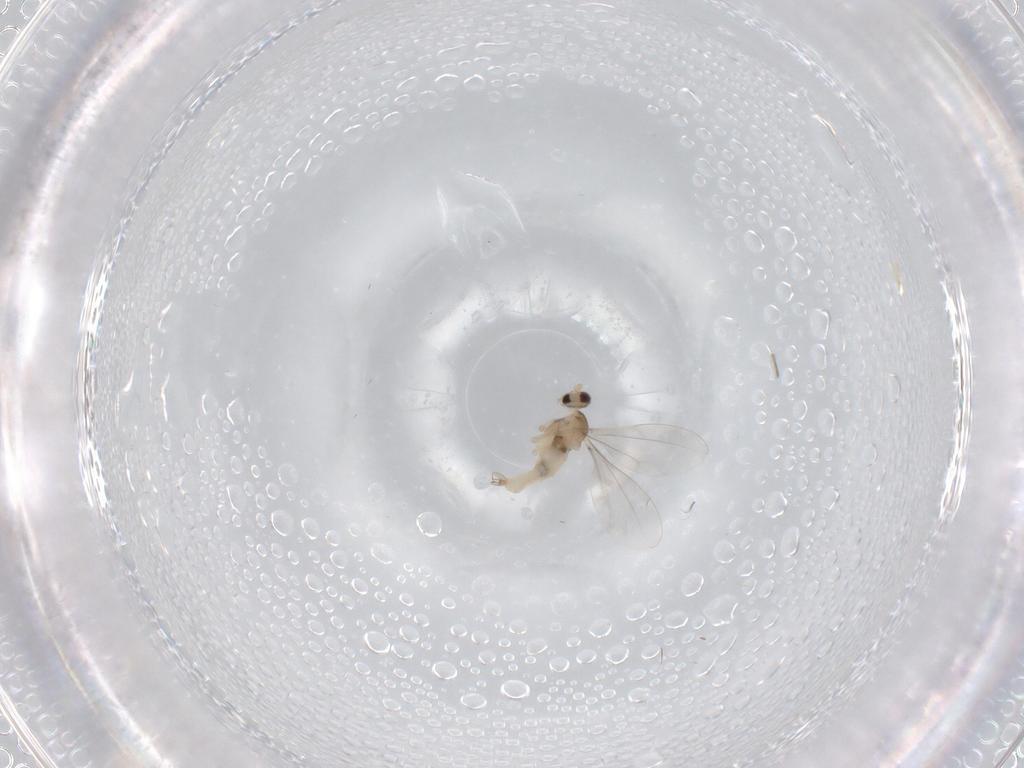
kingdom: Animalia
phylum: Arthropoda
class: Insecta
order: Diptera
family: Cecidomyiidae
